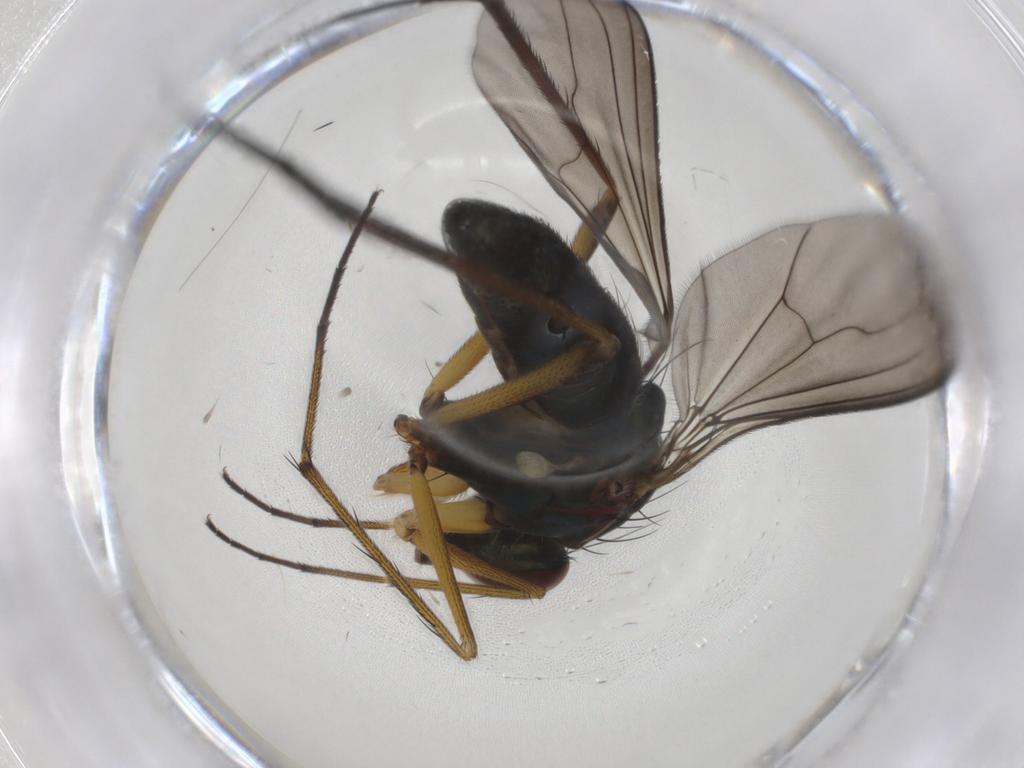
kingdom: Animalia
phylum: Arthropoda
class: Insecta
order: Diptera
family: Dolichopodidae
